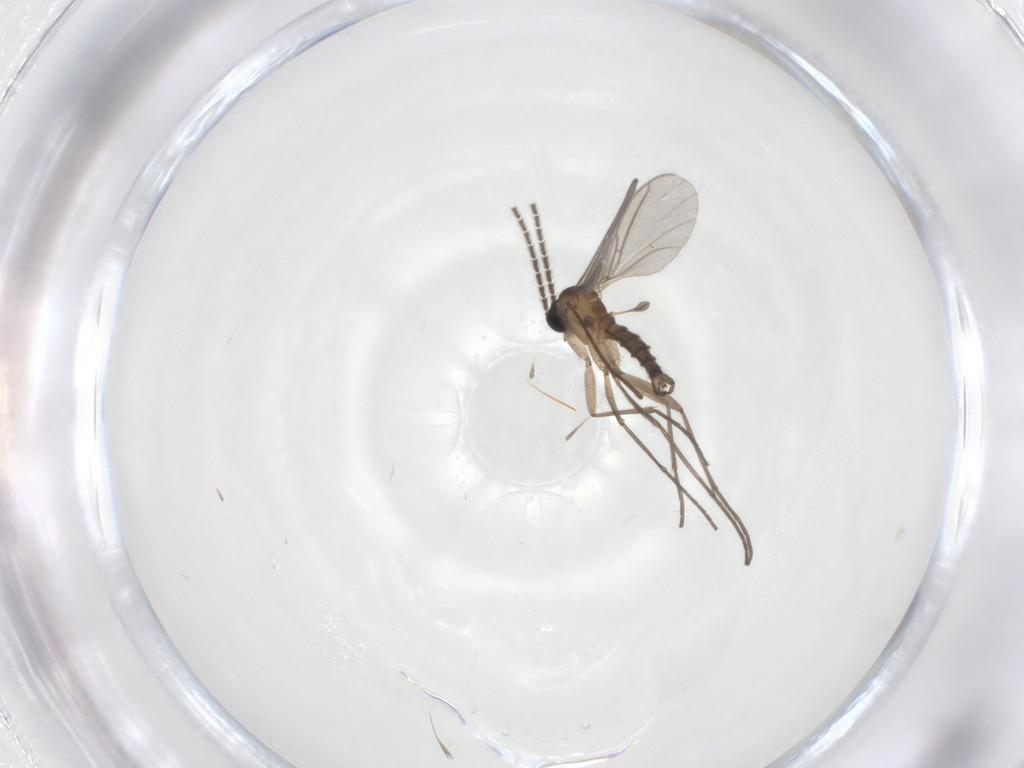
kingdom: Animalia
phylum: Arthropoda
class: Insecta
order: Diptera
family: Sciaridae
